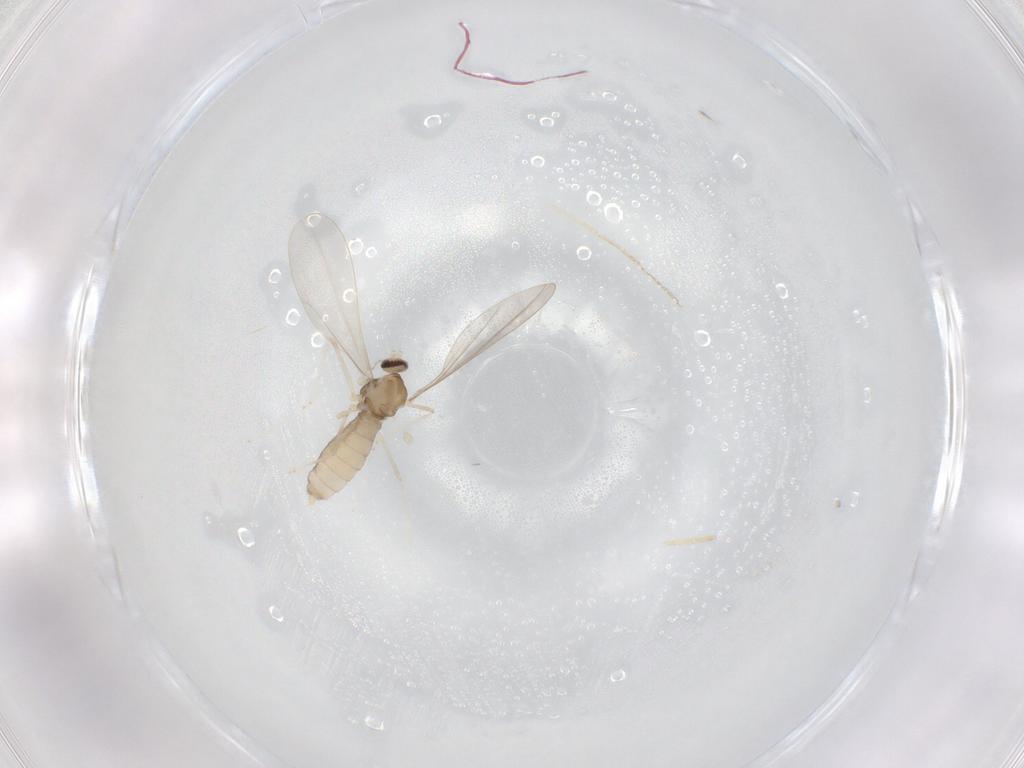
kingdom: Animalia
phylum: Arthropoda
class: Insecta
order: Diptera
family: Cecidomyiidae
